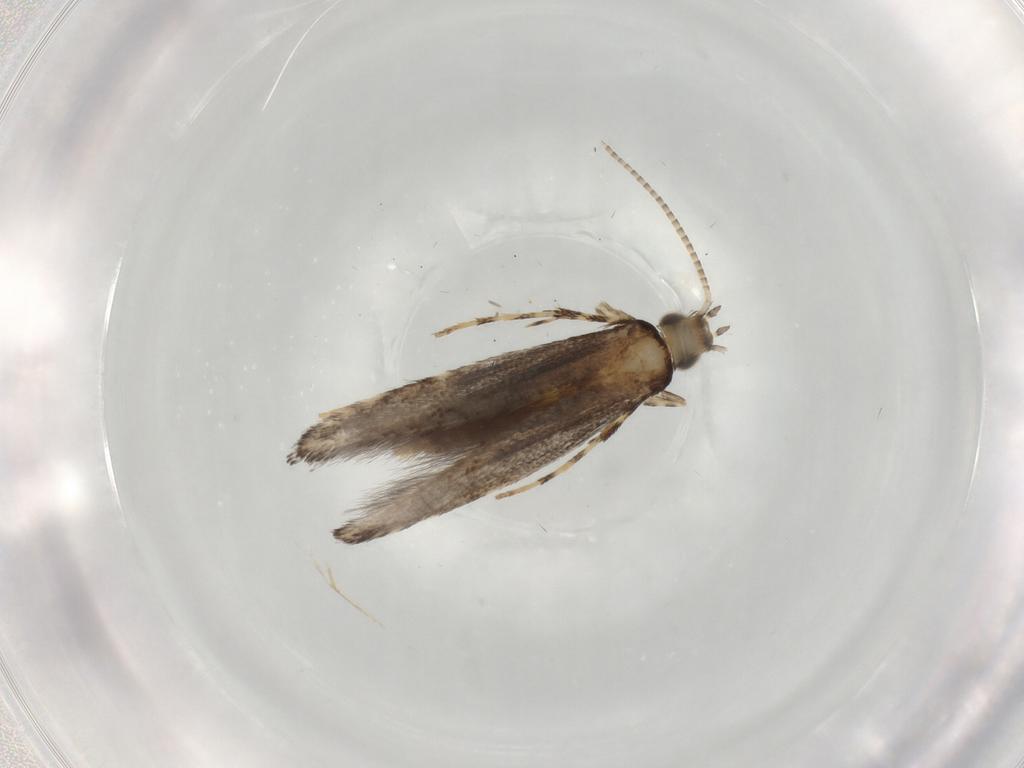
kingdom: Animalia
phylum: Arthropoda
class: Insecta
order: Lepidoptera
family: Gracillariidae
